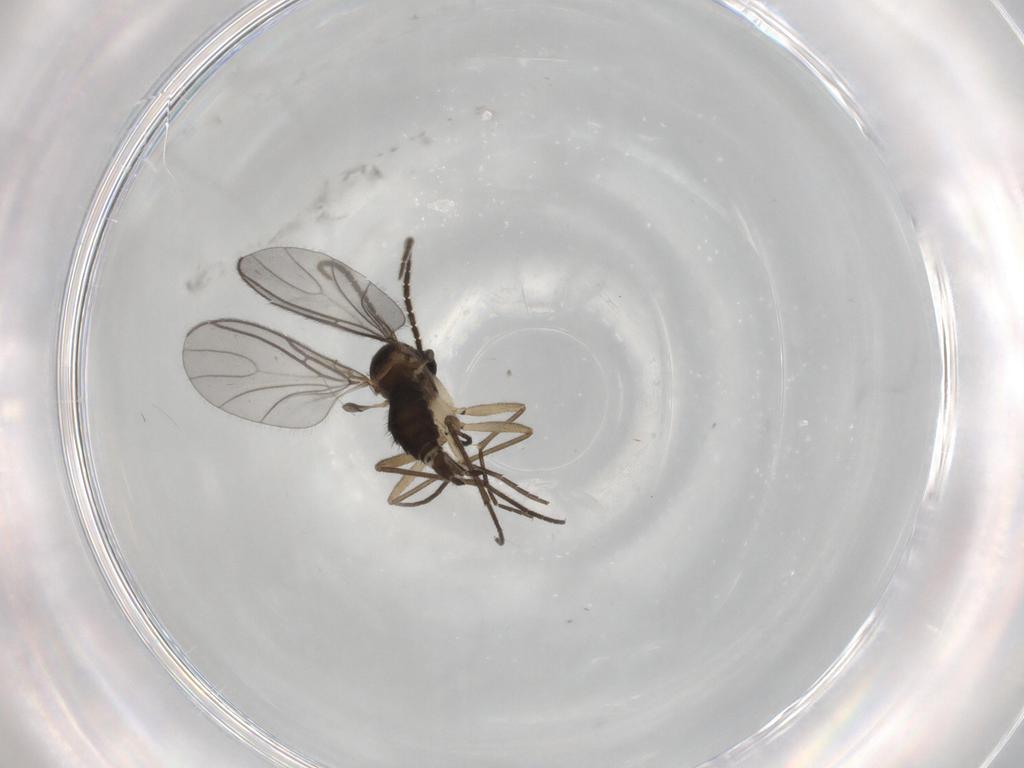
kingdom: Animalia
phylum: Arthropoda
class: Insecta
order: Diptera
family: Sciaridae
